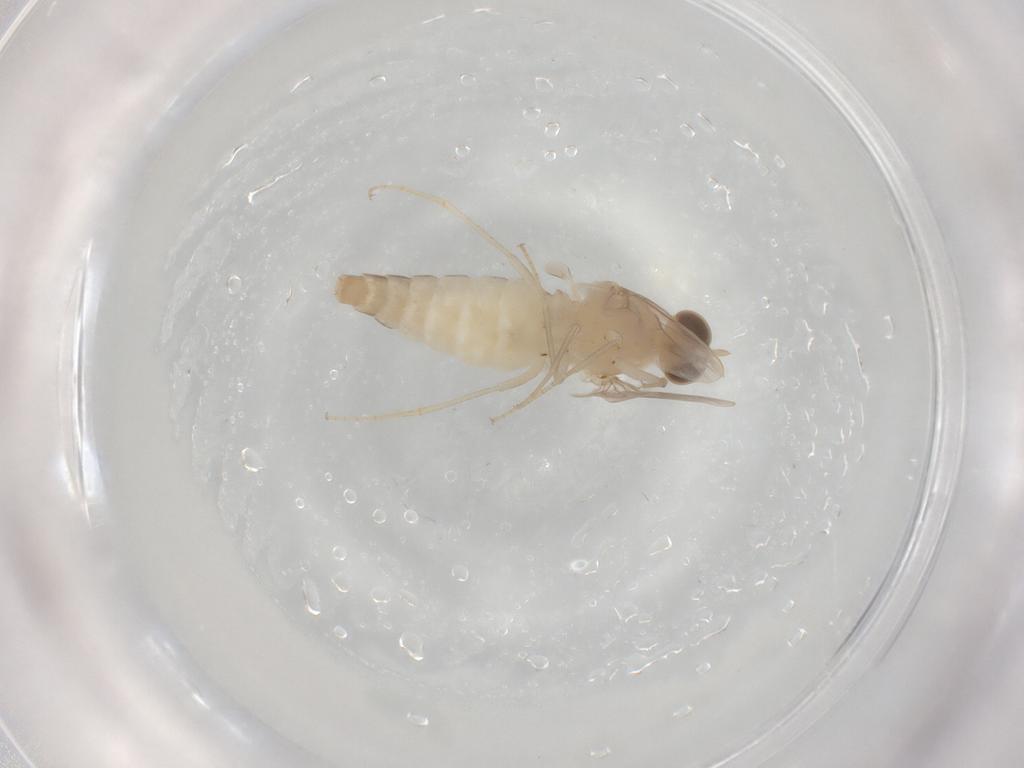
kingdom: Animalia
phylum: Arthropoda
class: Insecta
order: Diptera
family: Scenopinidae
